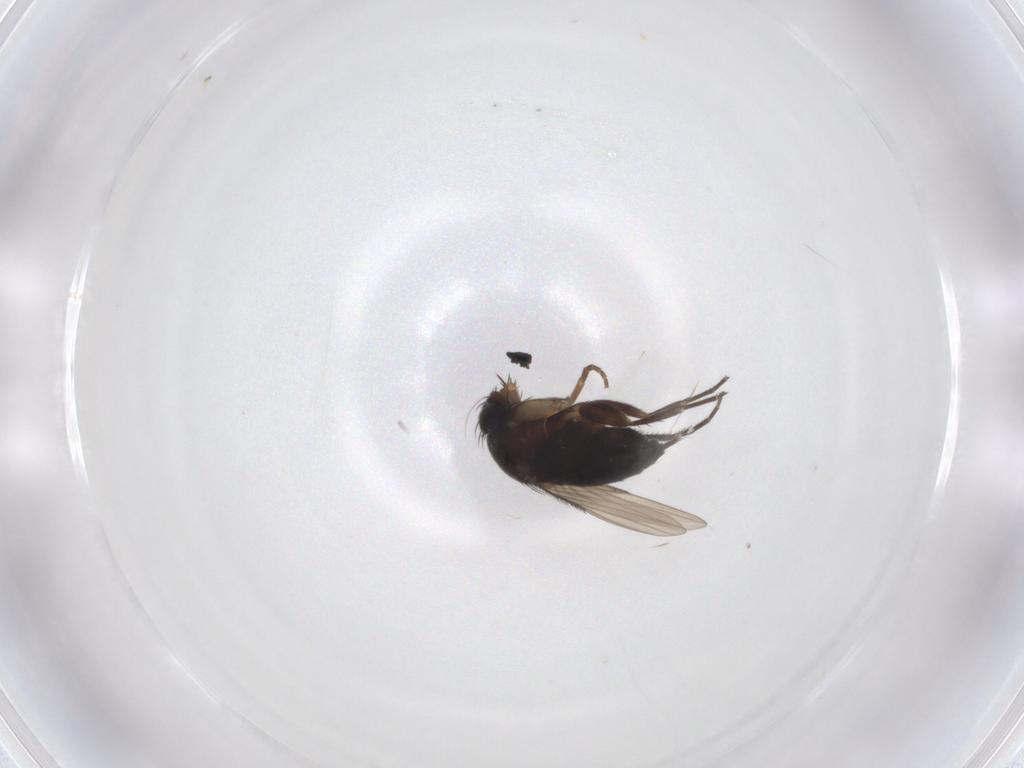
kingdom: Animalia
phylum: Arthropoda
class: Insecta
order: Diptera
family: Phoridae
